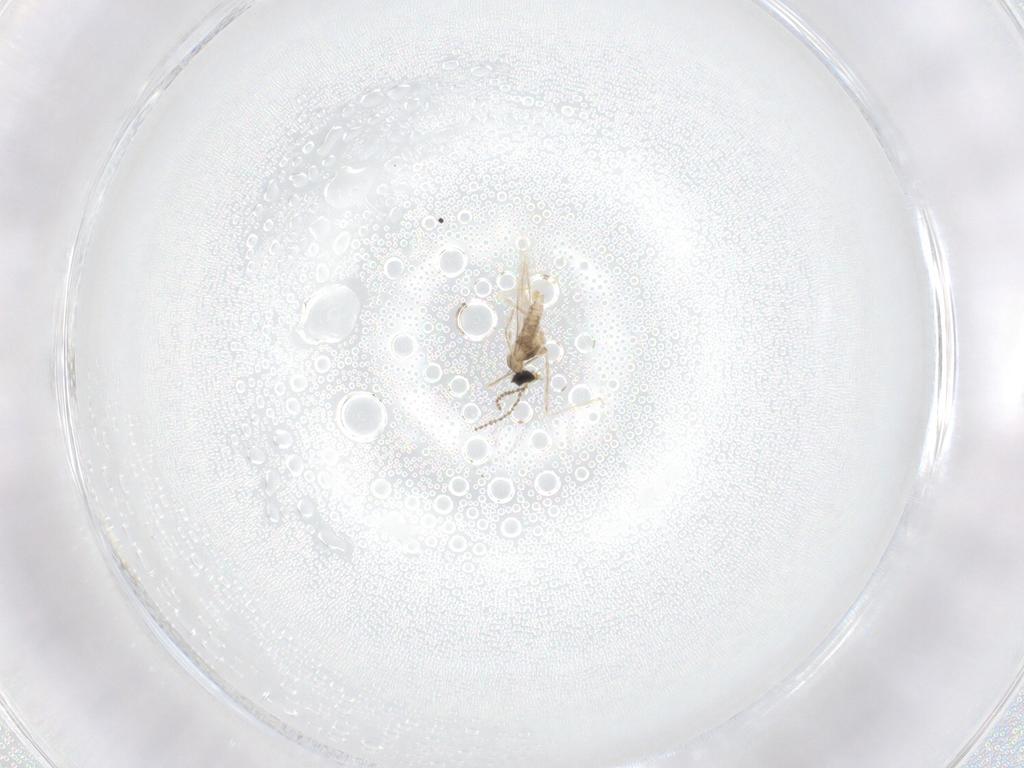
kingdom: Animalia
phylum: Arthropoda
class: Insecta
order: Diptera
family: Cecidomyiidae
